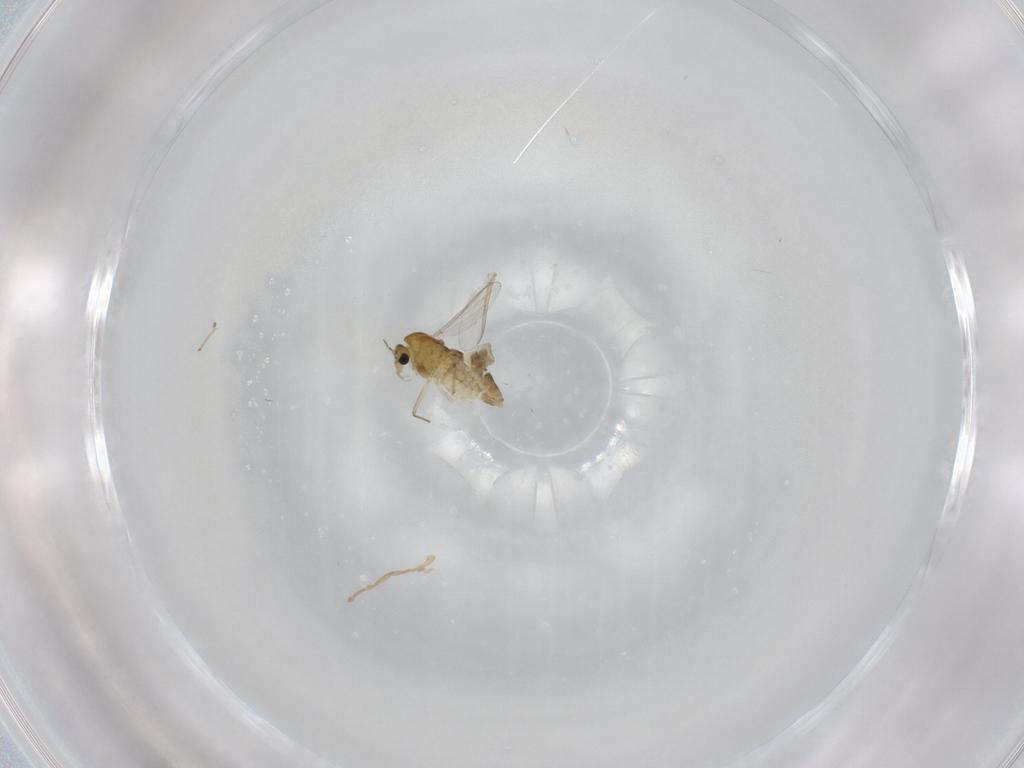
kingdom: Animalia
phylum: Arthropoda
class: Insecta
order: Diptera
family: Chironomidae
